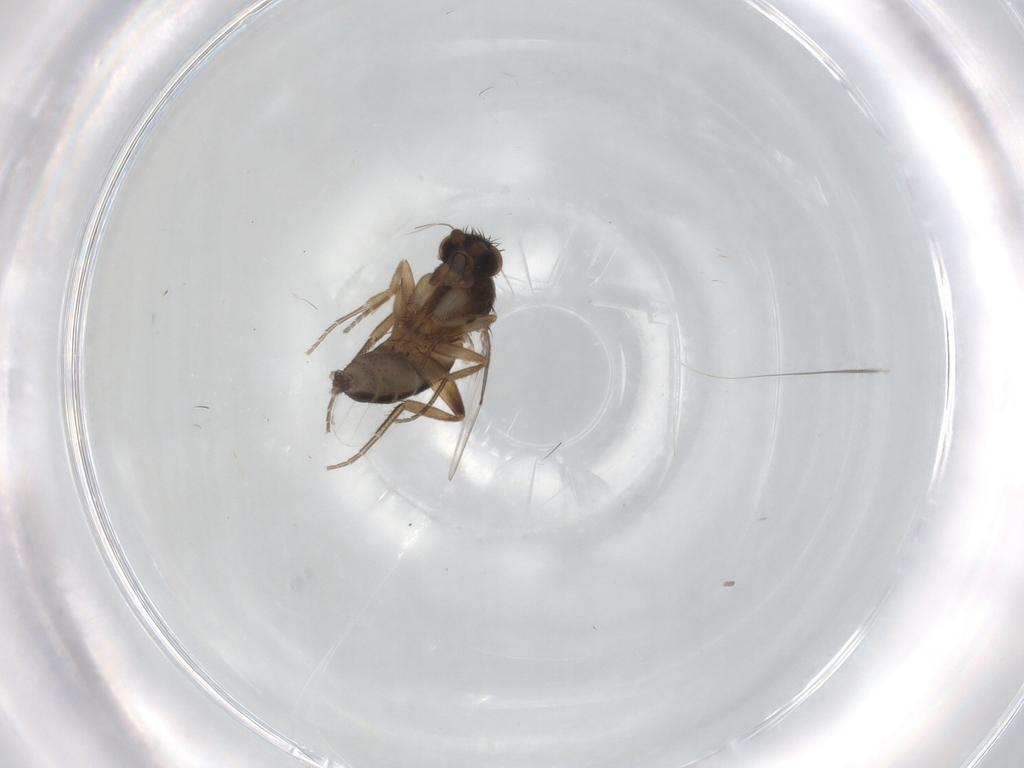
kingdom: Animalia
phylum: Arthropoda
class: Insecta
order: Diptera
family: Phoridae
